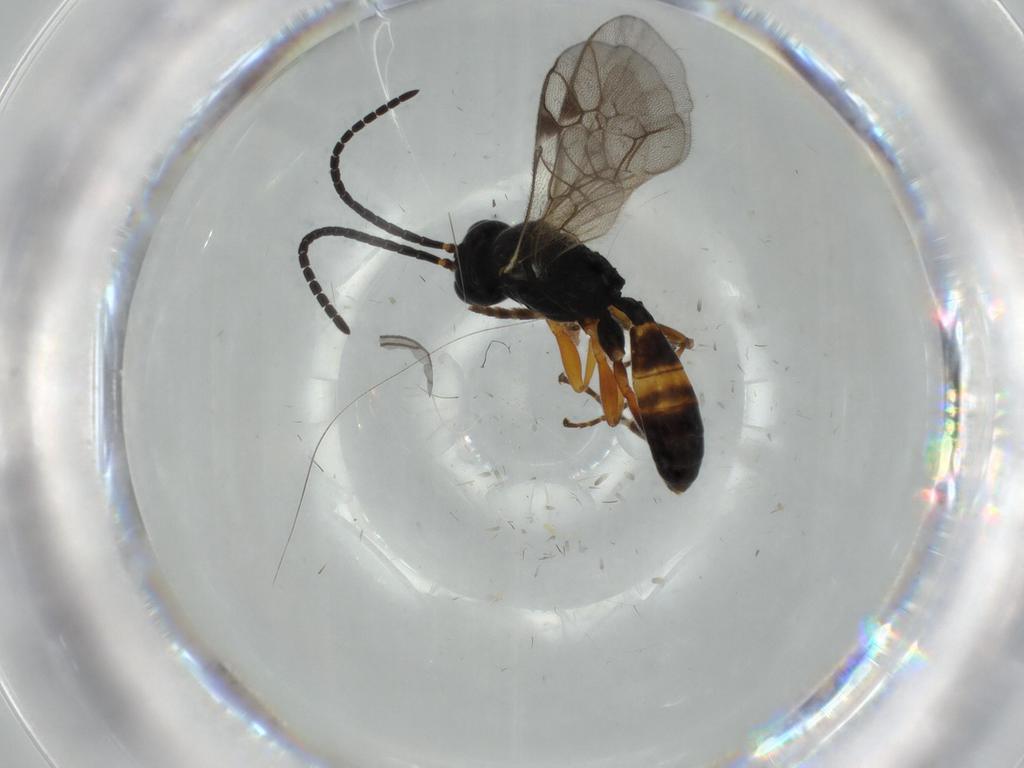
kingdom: Animalia
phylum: Arthropoda
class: Insecta
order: Hymenoptera
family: Ichneumonidae
